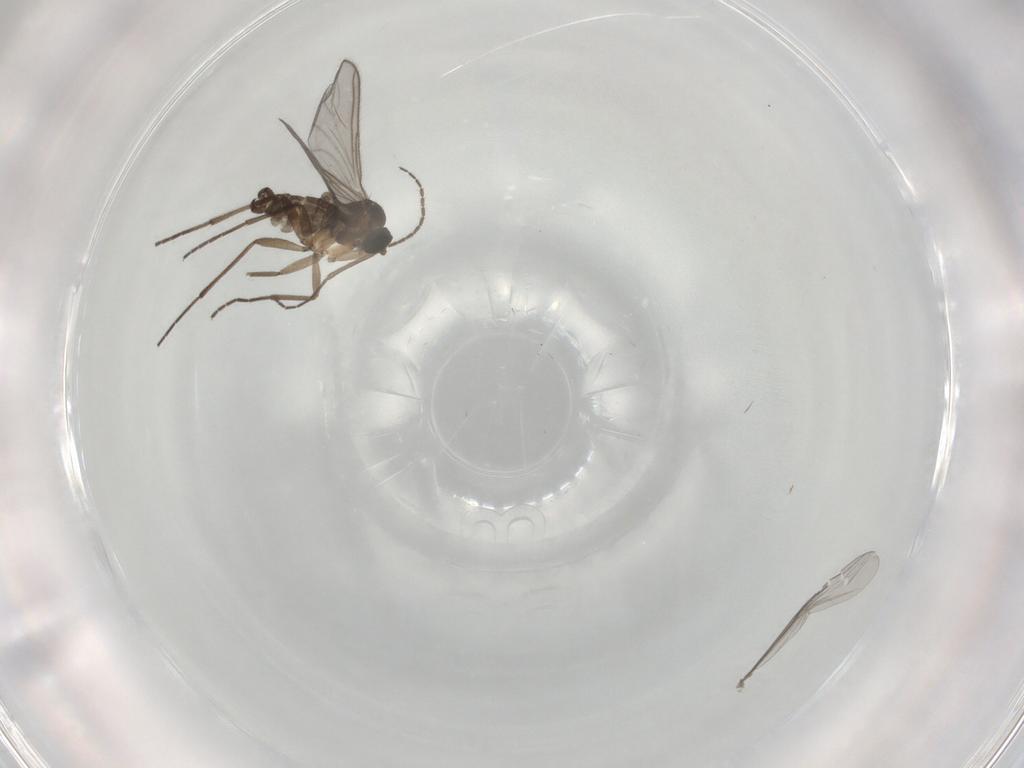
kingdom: Animalia
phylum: Arthropoda
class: Insecta
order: Diptera
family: Sciaridae
